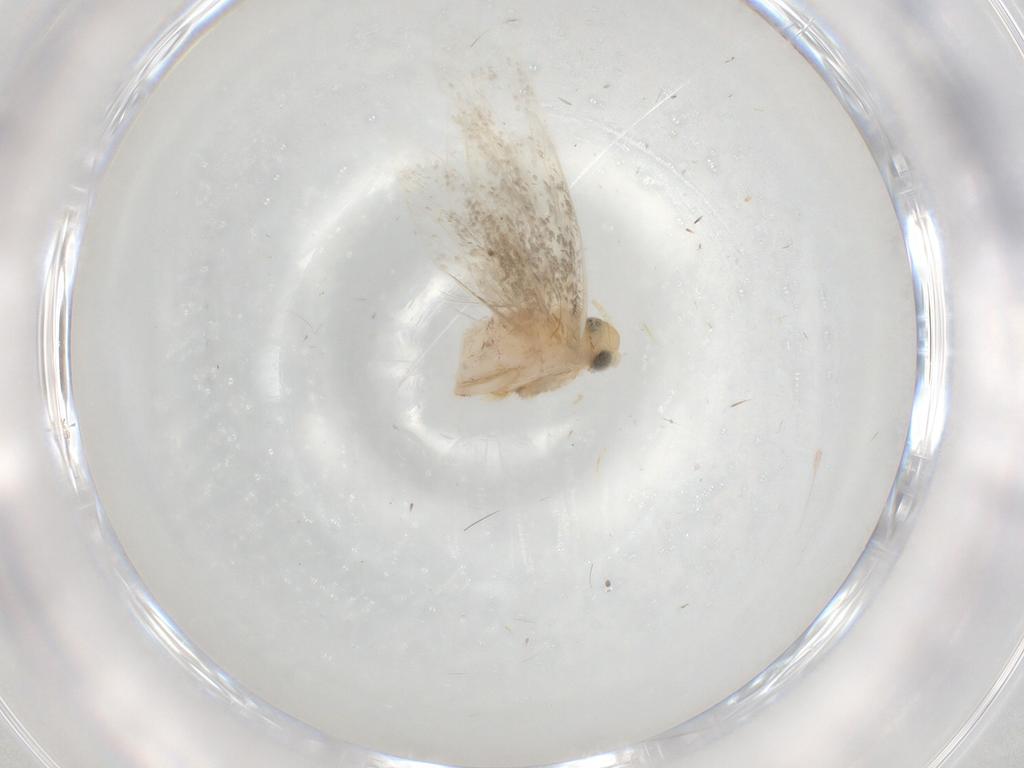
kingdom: Animalia
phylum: Arthropoda
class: Insecta
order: Lepidoptera
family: Dryadaulidae
